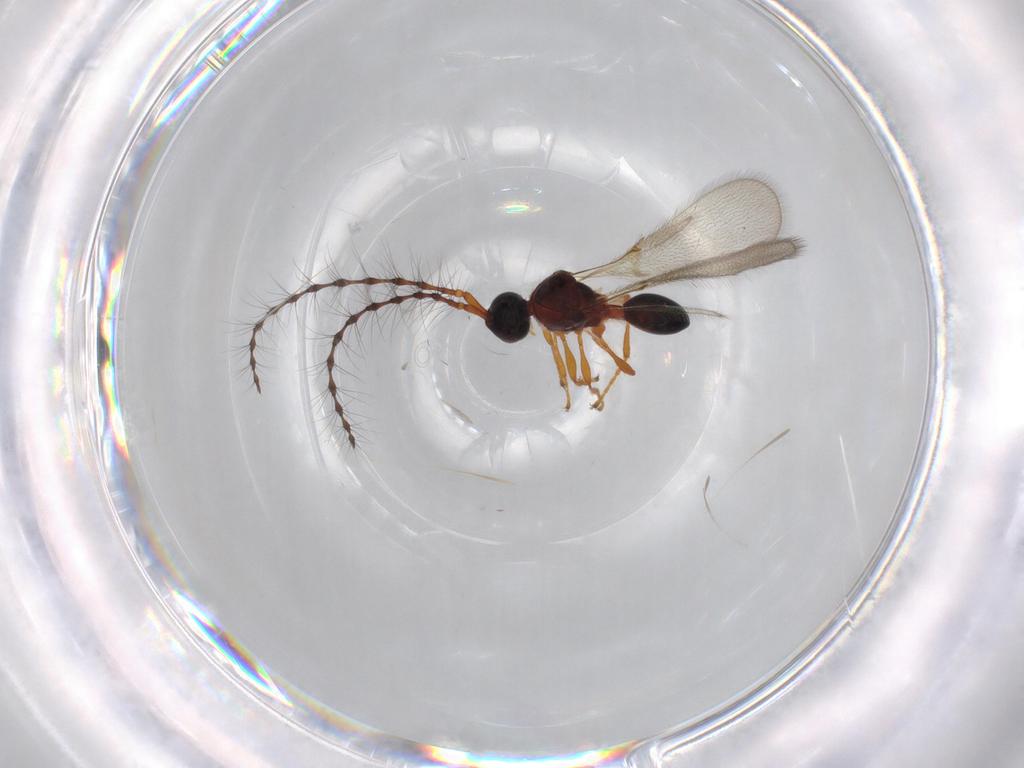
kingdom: Animalia
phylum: Arthropoda
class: Insecta
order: Hymenoptera
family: Diapriidae
